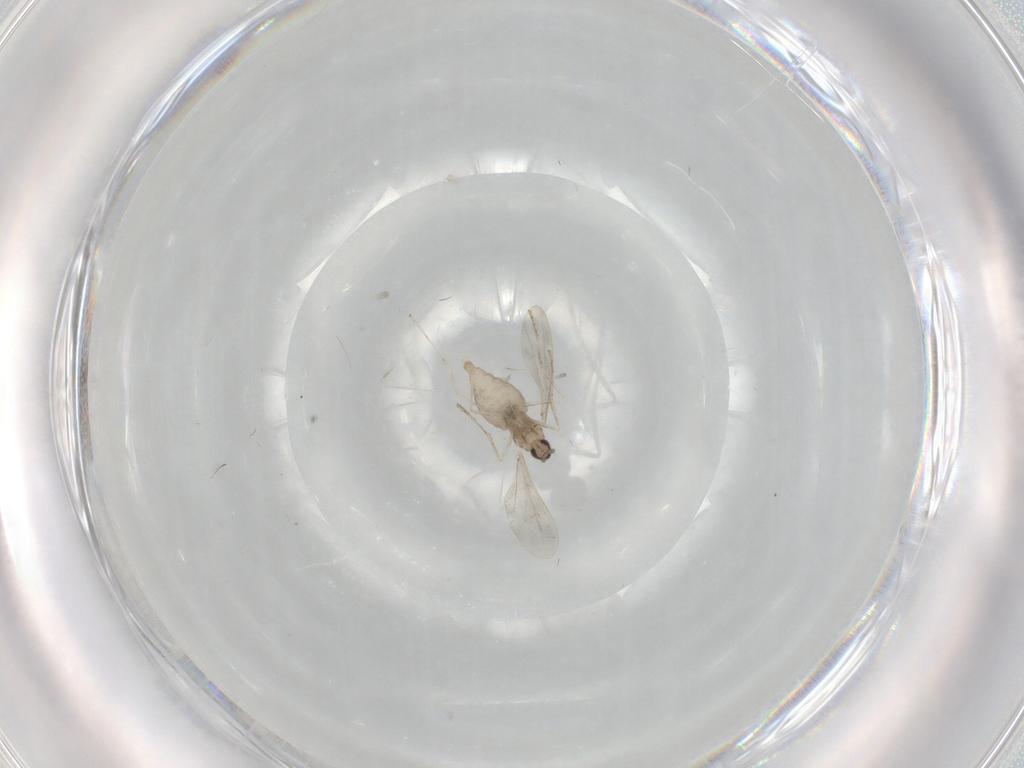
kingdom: Animalia
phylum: Arthropoda
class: Insecta
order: Diptera
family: Cecidomyiidae
